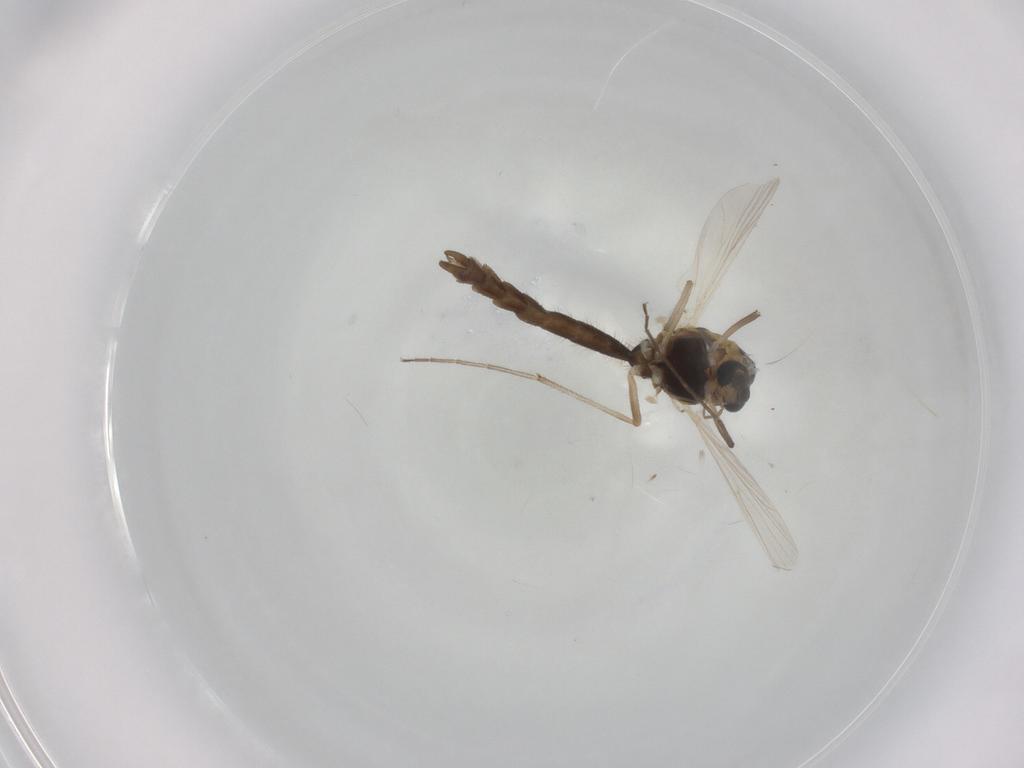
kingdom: Animalia
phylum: Arthropoda
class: Insecta
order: Diptera
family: Chironomidae
